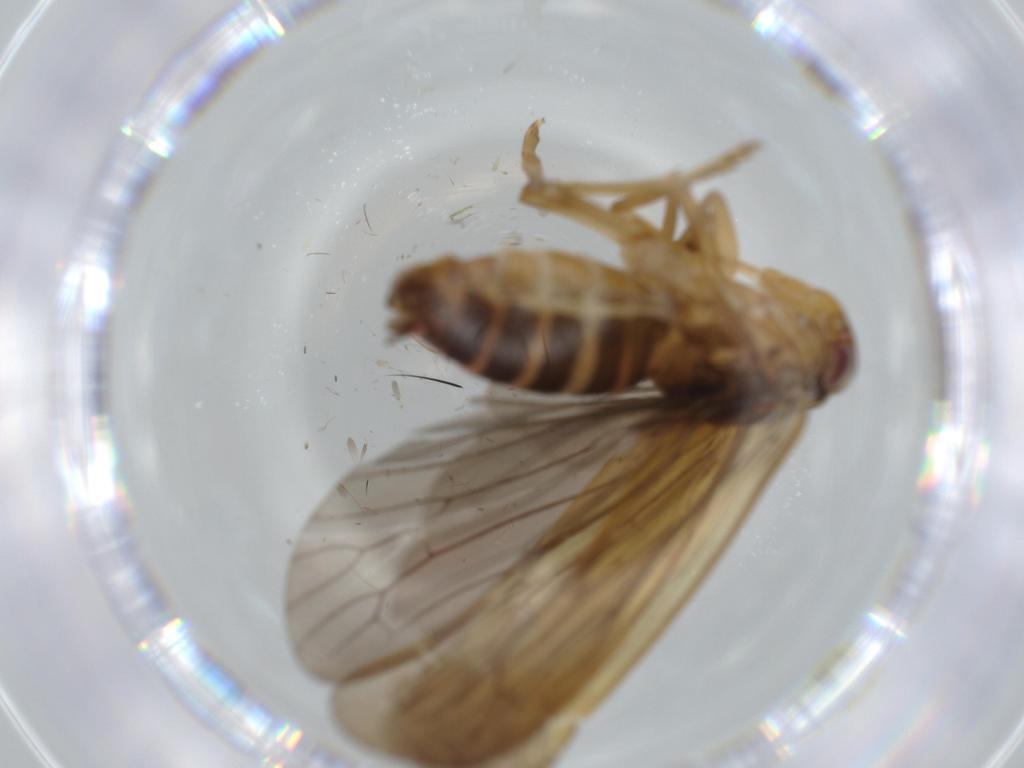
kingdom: Animalia
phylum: Arthropoda
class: Insecta
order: Hemiptera
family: Achilidae
